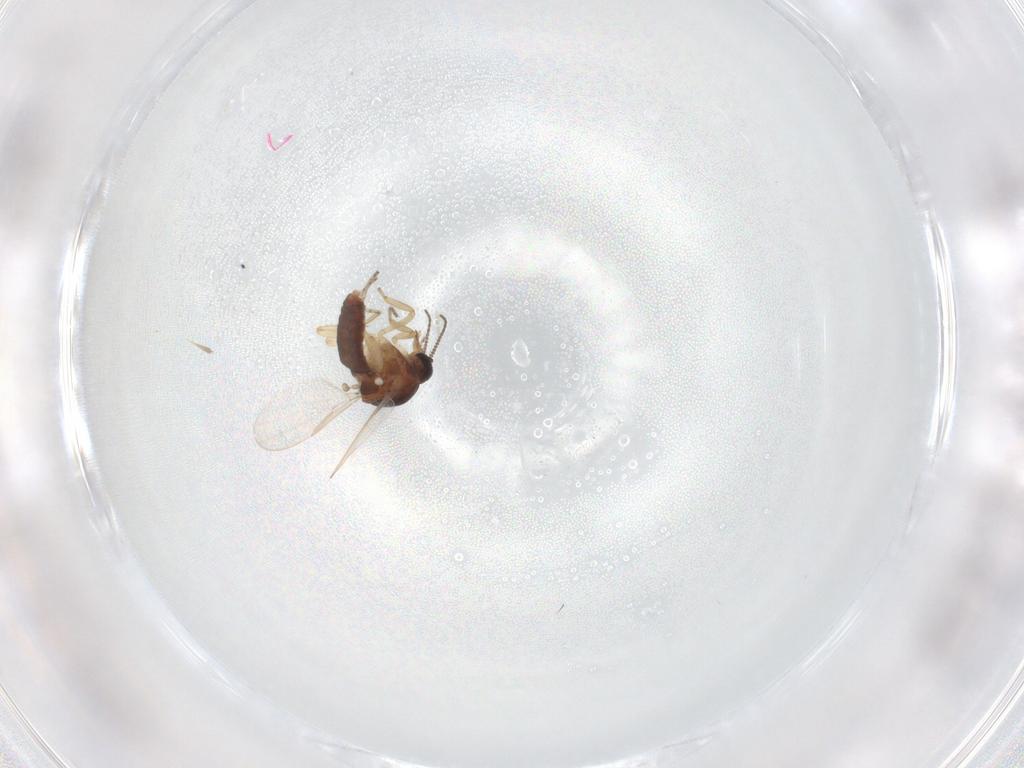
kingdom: Animalia
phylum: Arthropoda
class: Insecta
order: Diptera
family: Ceratopogonidae
